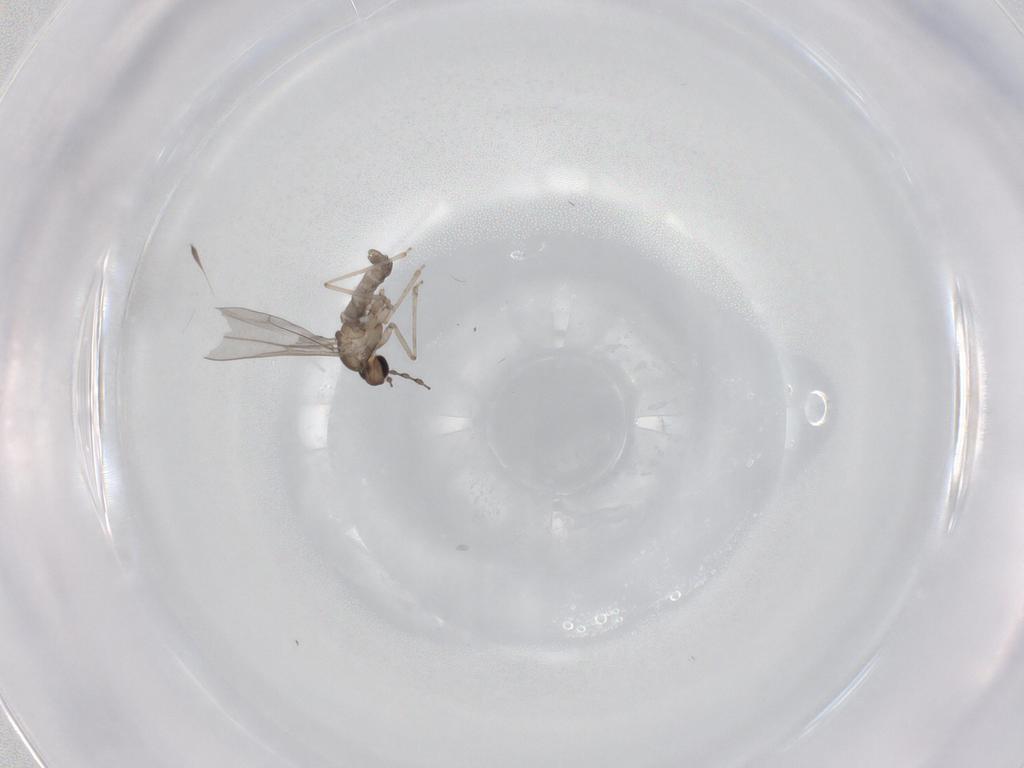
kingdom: Animalia
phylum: Arthropoda
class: Insecta
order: Diptera
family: Cecidomyiidae
